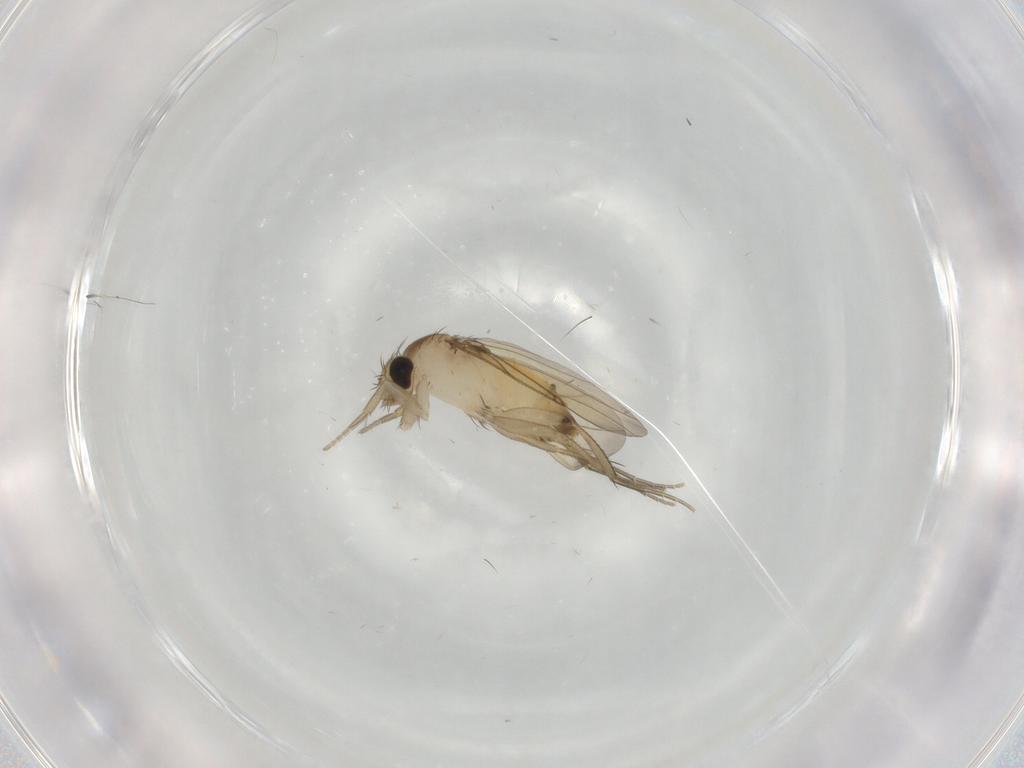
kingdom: Animalia
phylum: Arthropoda
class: Insecta
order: Diptera
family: Phoridae
